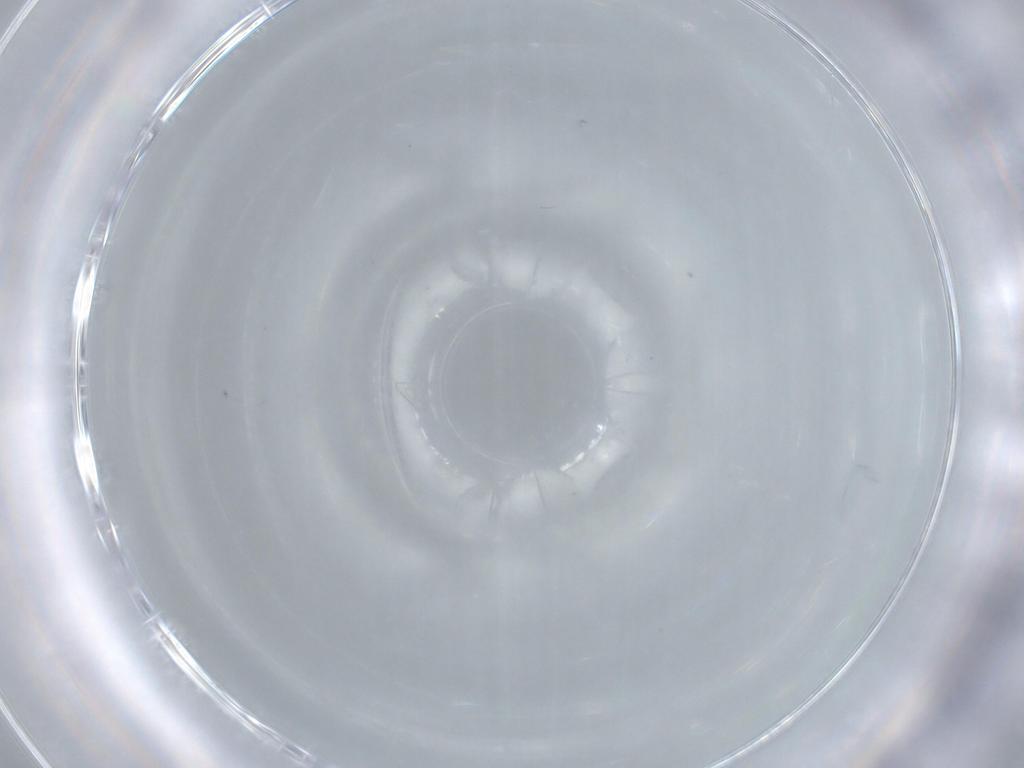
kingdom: Animalia
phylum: Arthropoda
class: Insecta
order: Diptera
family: Cecidomyiidae
